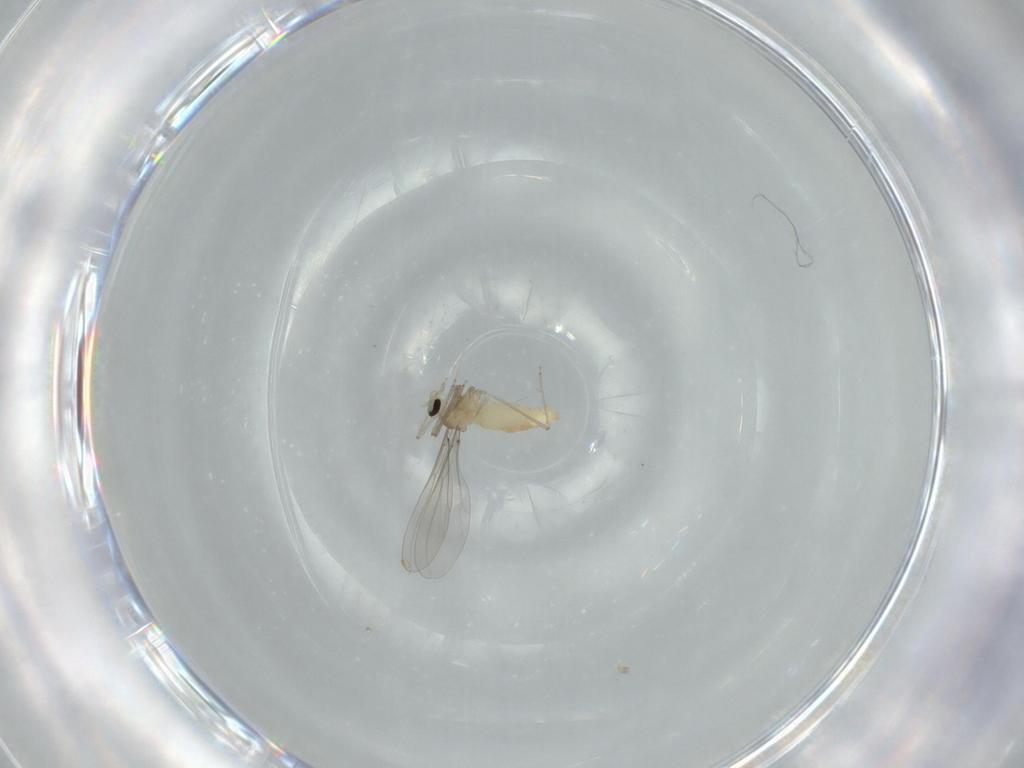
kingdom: Animalia
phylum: Arthropoda
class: Insecta
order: Diptera
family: Cecidomyiidae
